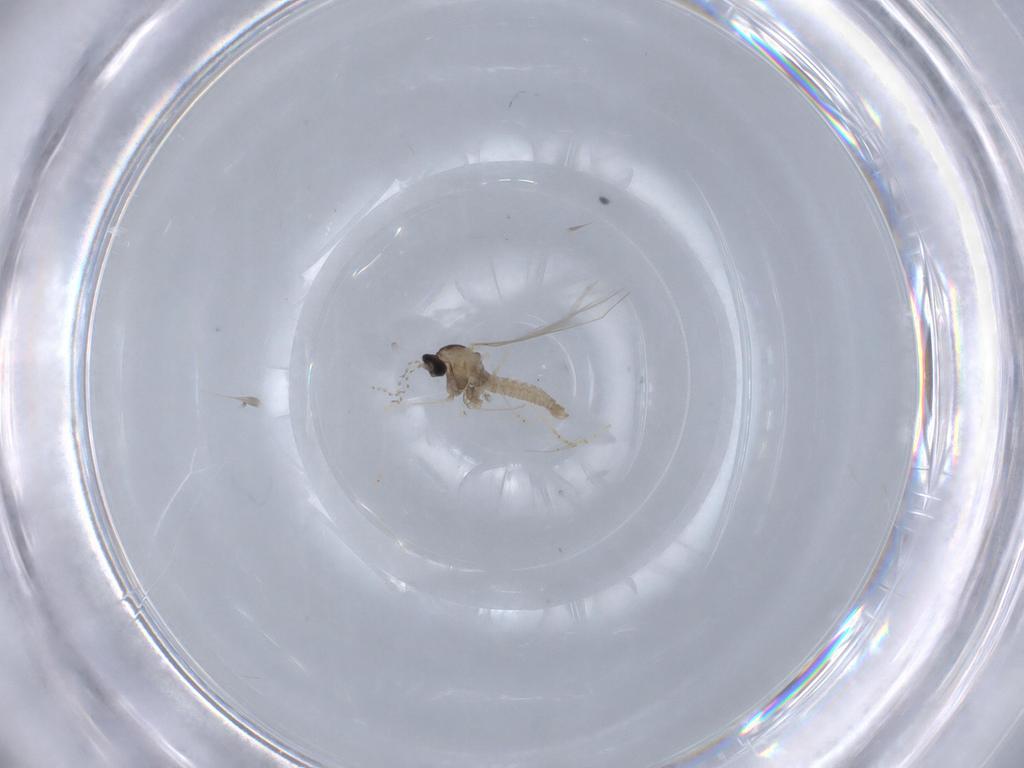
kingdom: Animalia
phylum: Arthropoda
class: Insecta
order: Diptera
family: Cecidomyiidae
